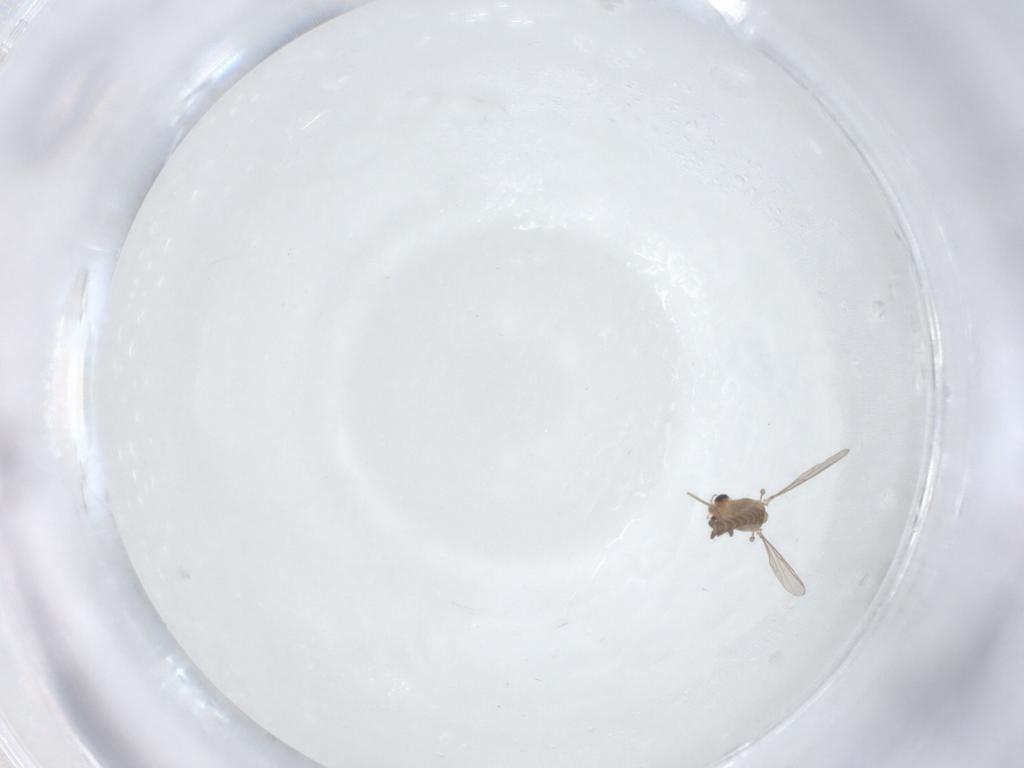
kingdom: Animalia
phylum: Arthropoda
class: Insecta
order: Diptera
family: Chironomidae
